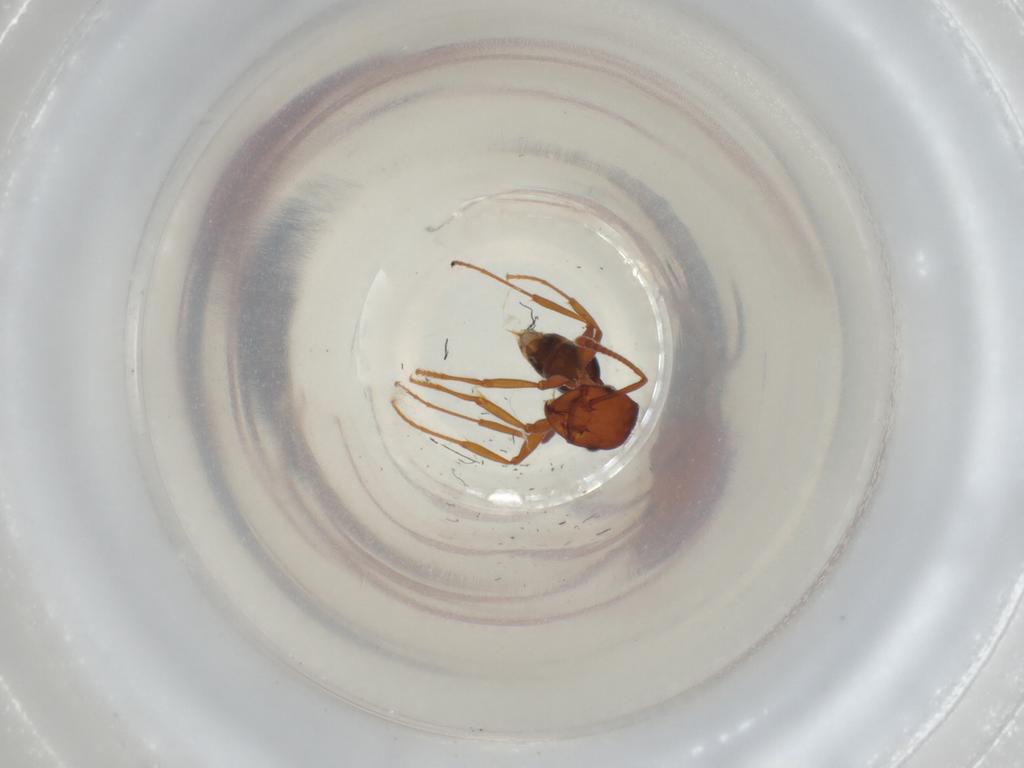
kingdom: Animalia
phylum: Arthropoda
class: Insecta
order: Hymenoptera
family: Formicidae
